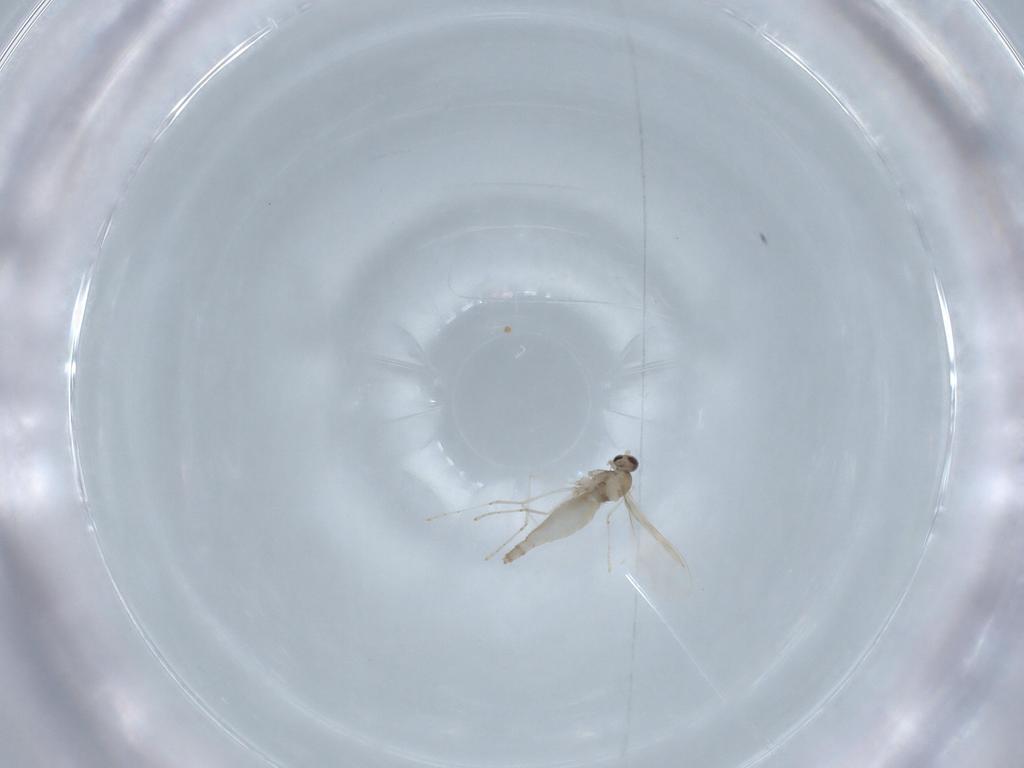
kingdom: Animalia
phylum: Arthropoda
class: Insecta
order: Diptera
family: Cecidomyiidae
